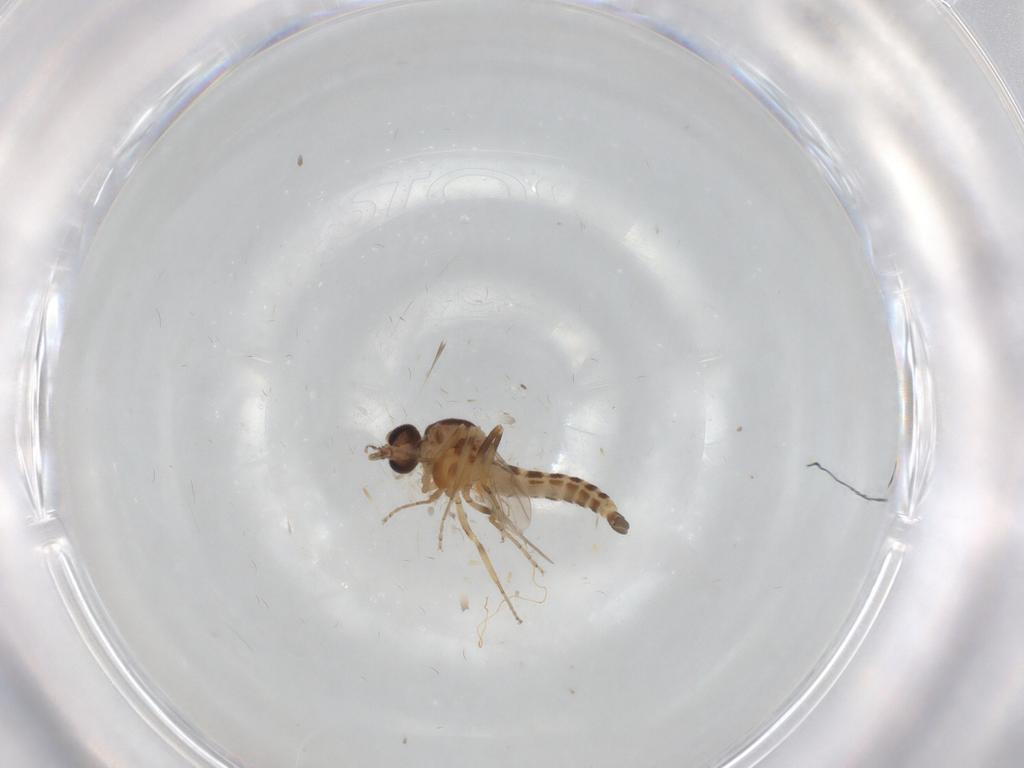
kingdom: Animalia
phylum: Arthropoda
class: Insecta
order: Diptera
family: Ceratopogonidae
